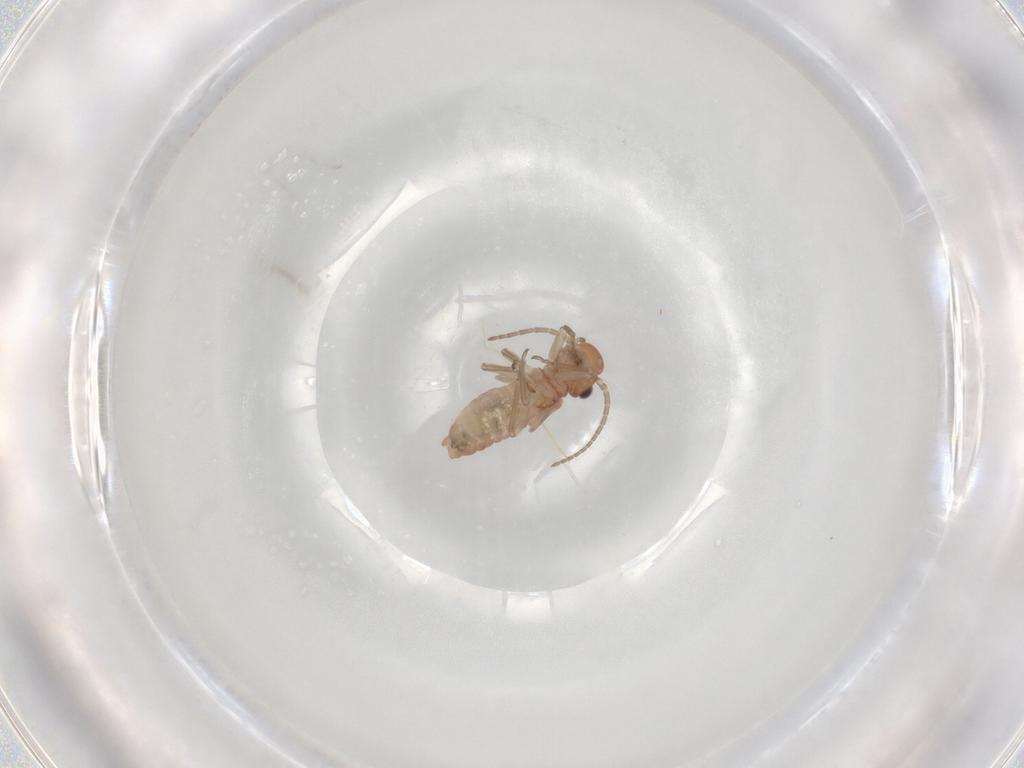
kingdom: Animalia
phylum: Arthropoda
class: Insecta
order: Psocodea
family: Caeciliusidae
